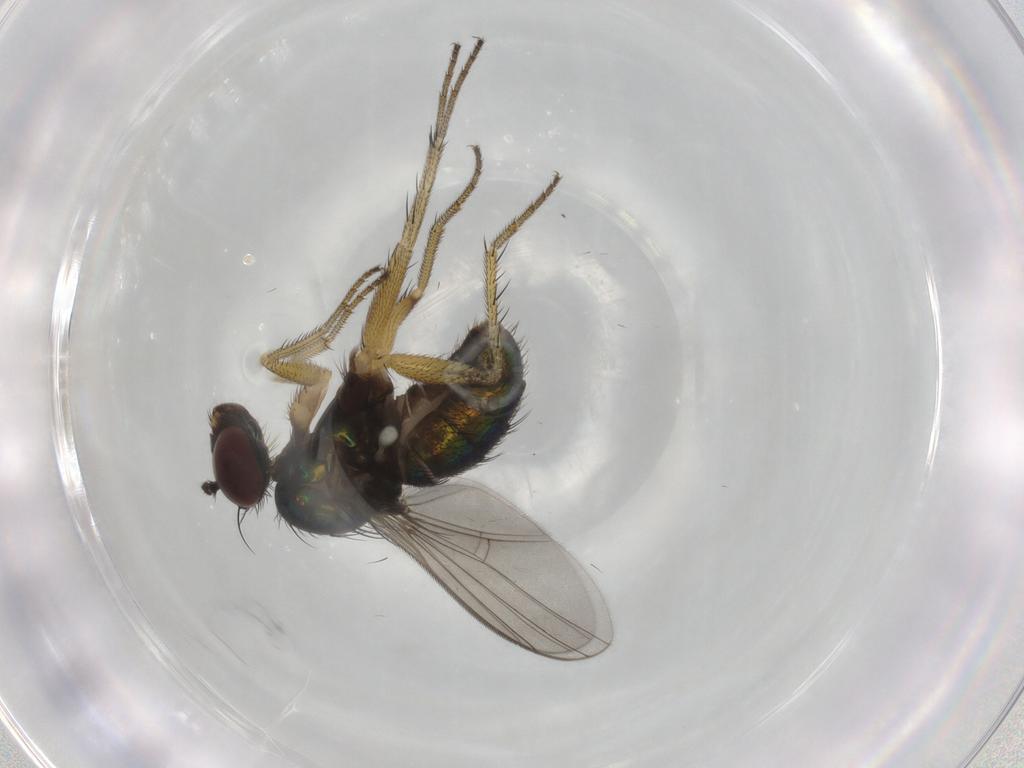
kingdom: Animalia
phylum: Arthropoda
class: Insecta
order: Diptera
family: Dolichopodidae
